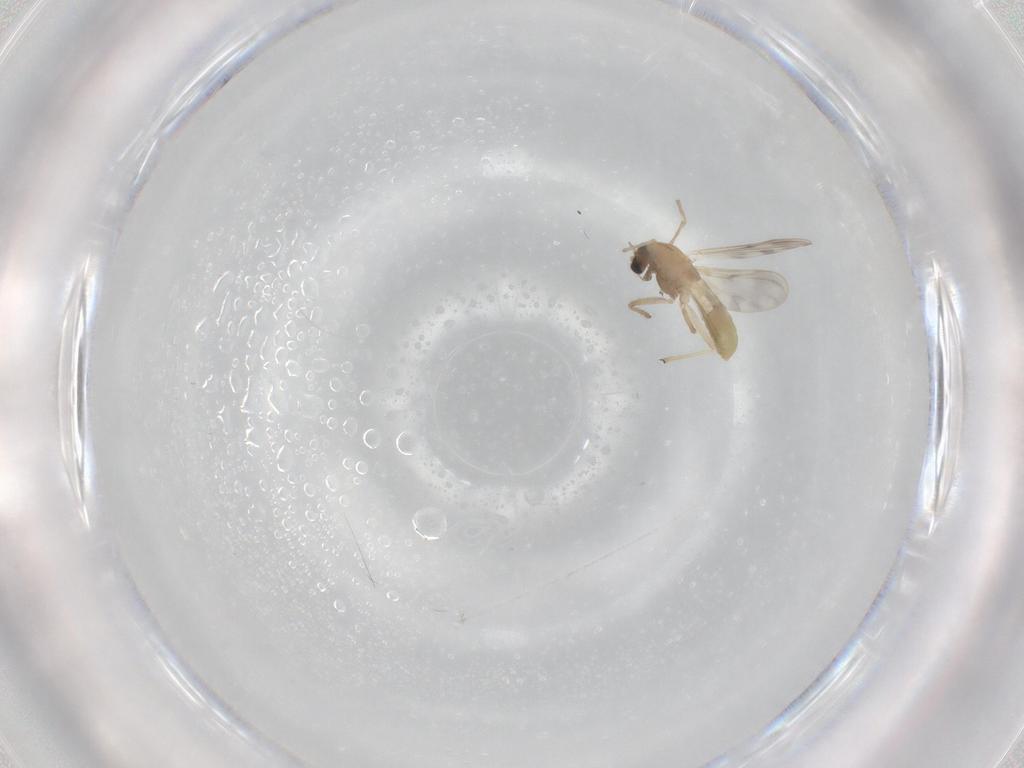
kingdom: Animalia
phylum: Arthropoda
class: Insecta
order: Diptera
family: Chironomidae
